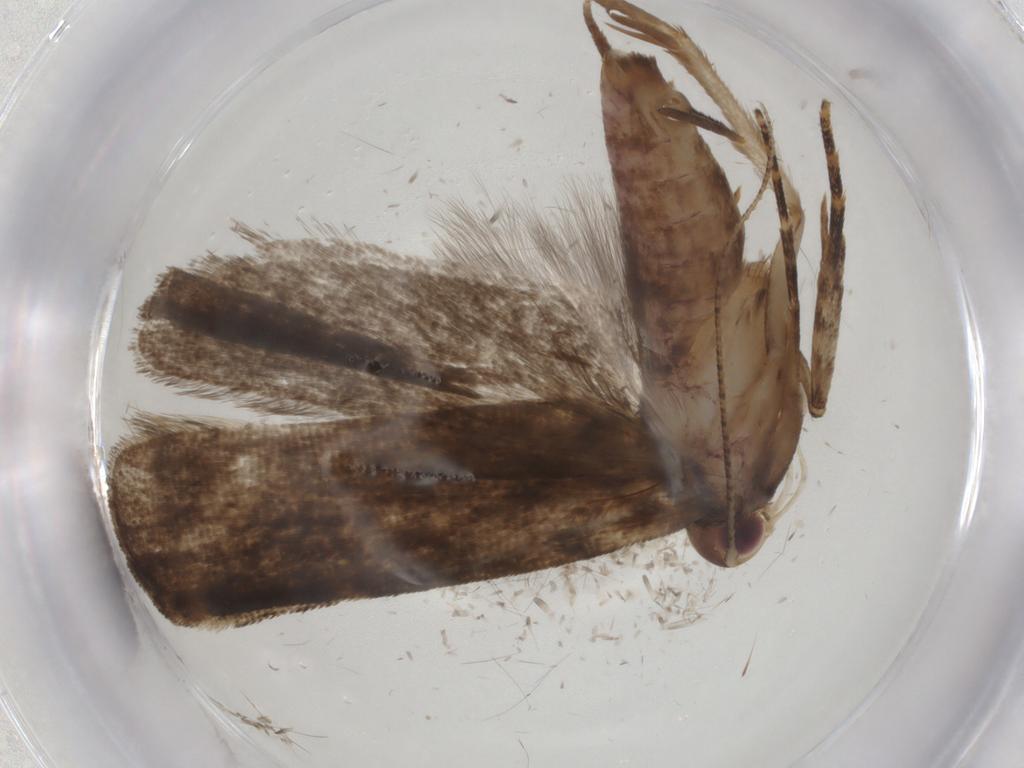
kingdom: Animalia
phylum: Arthropoda
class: Insecta
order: Lepidoptera
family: Gelechiidae
